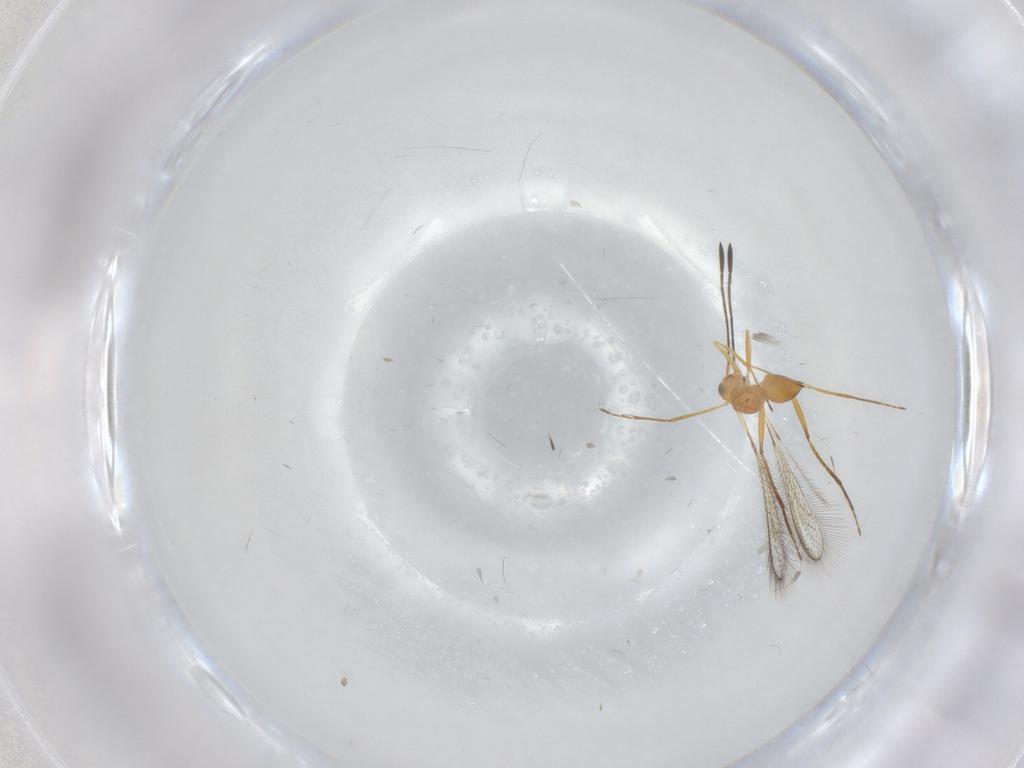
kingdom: Animalia
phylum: Arthropoda
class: Insecta
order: Hymenoptera
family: Mymaridae
